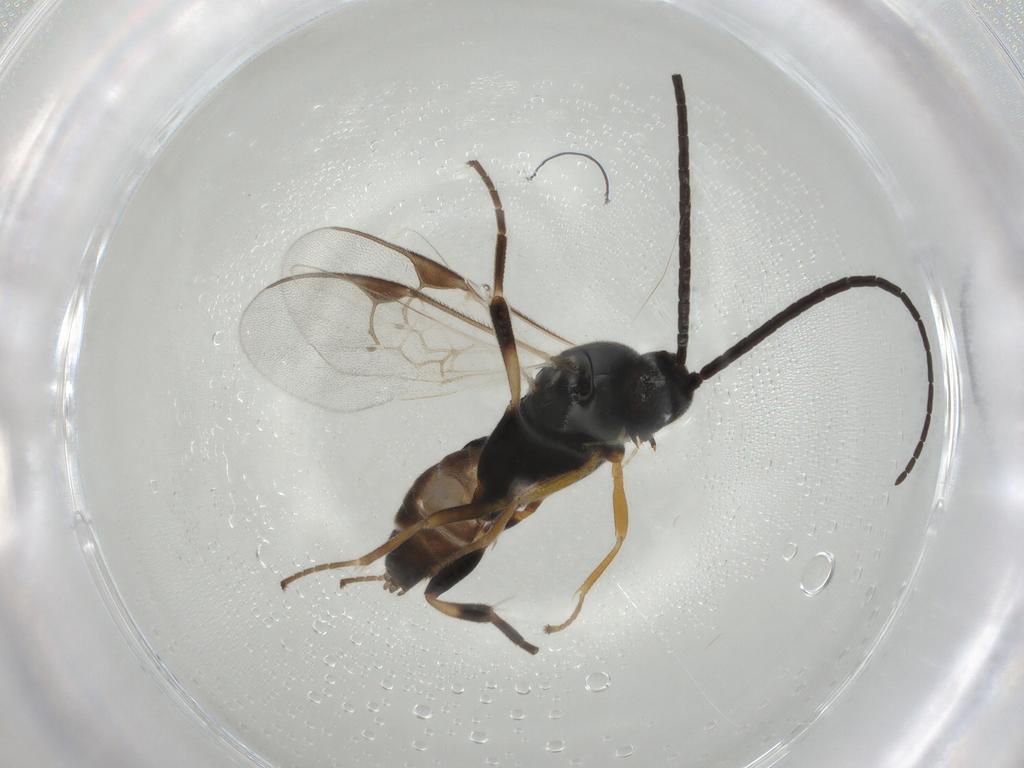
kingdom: Animalia
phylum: Arthropoda
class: Insecta
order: Hymenoptera
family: Braconidae
